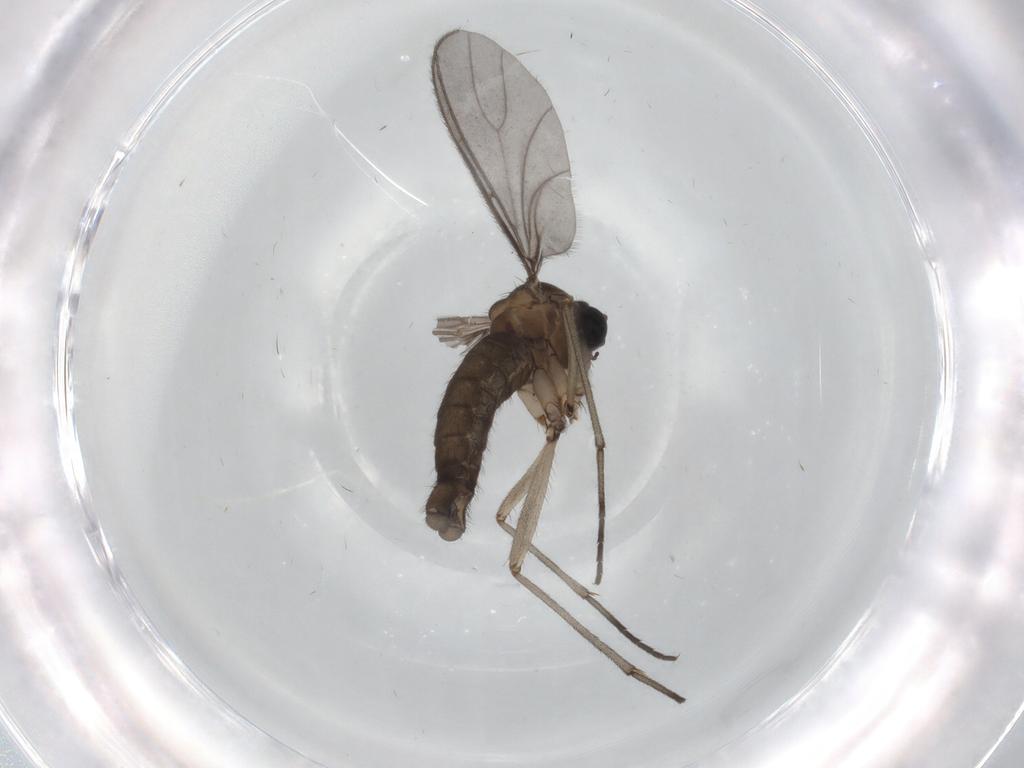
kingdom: Animalia
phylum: Arthropoda
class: Insecta
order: Diptera
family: Sciaridae
